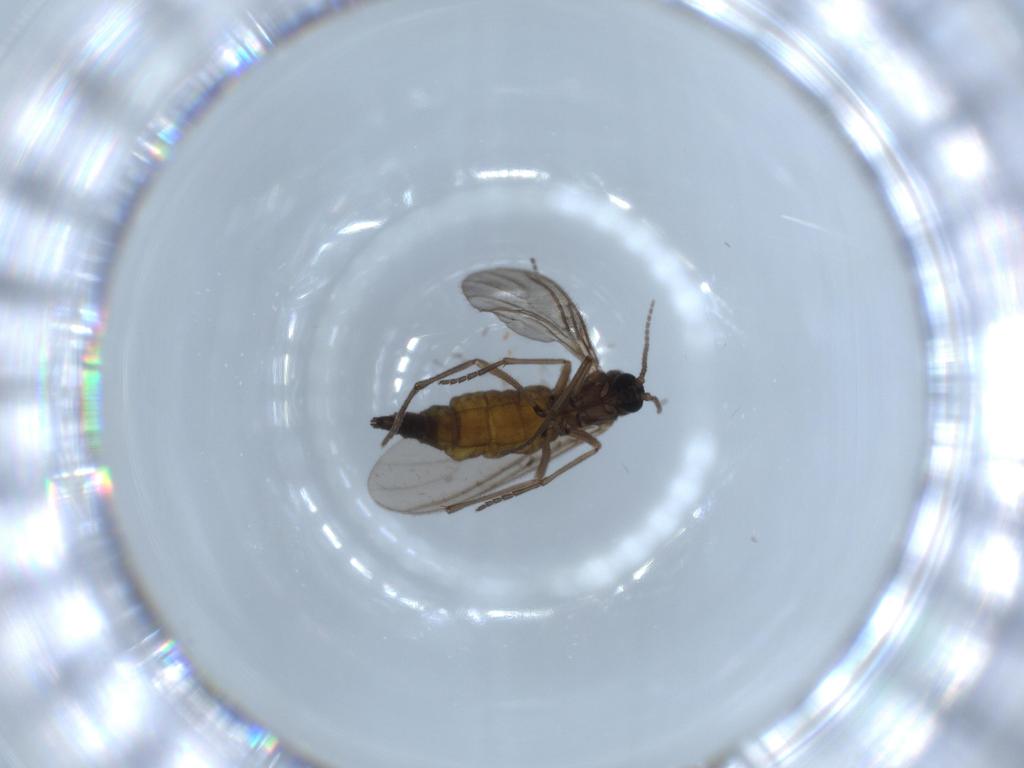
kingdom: Animalia
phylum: Arthropoda
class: Insecta
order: Diptera
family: Sciaridae
